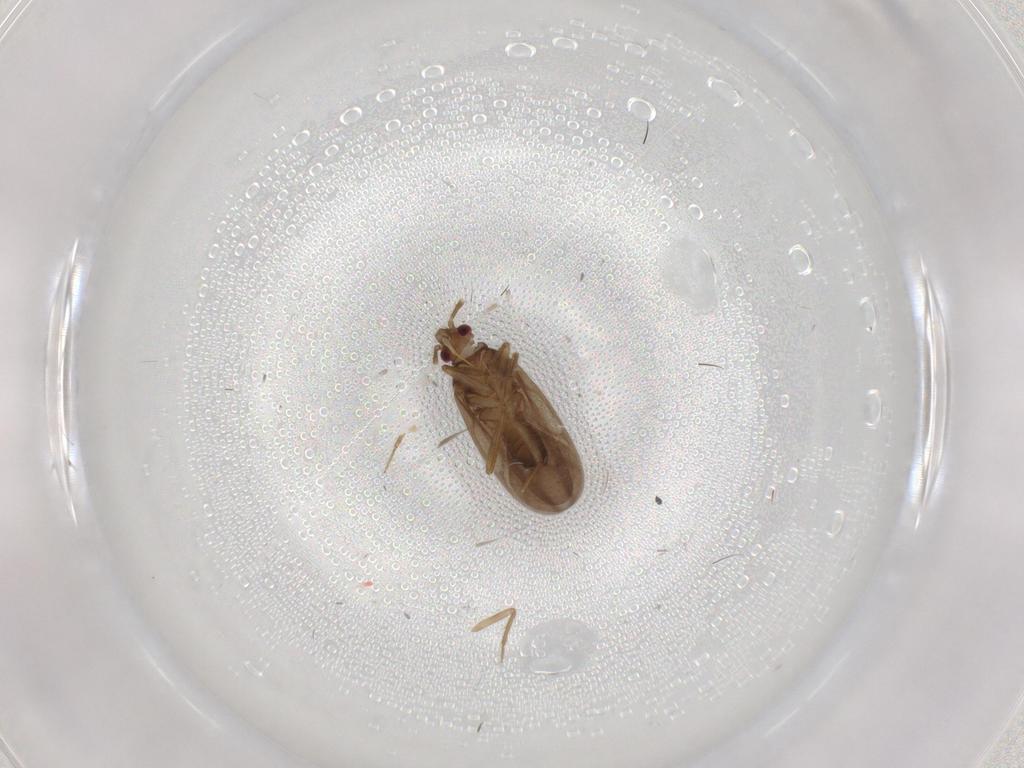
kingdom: Animalia
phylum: Arthropoda
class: Insecta
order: Hemiptera
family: Ceratocombidae
